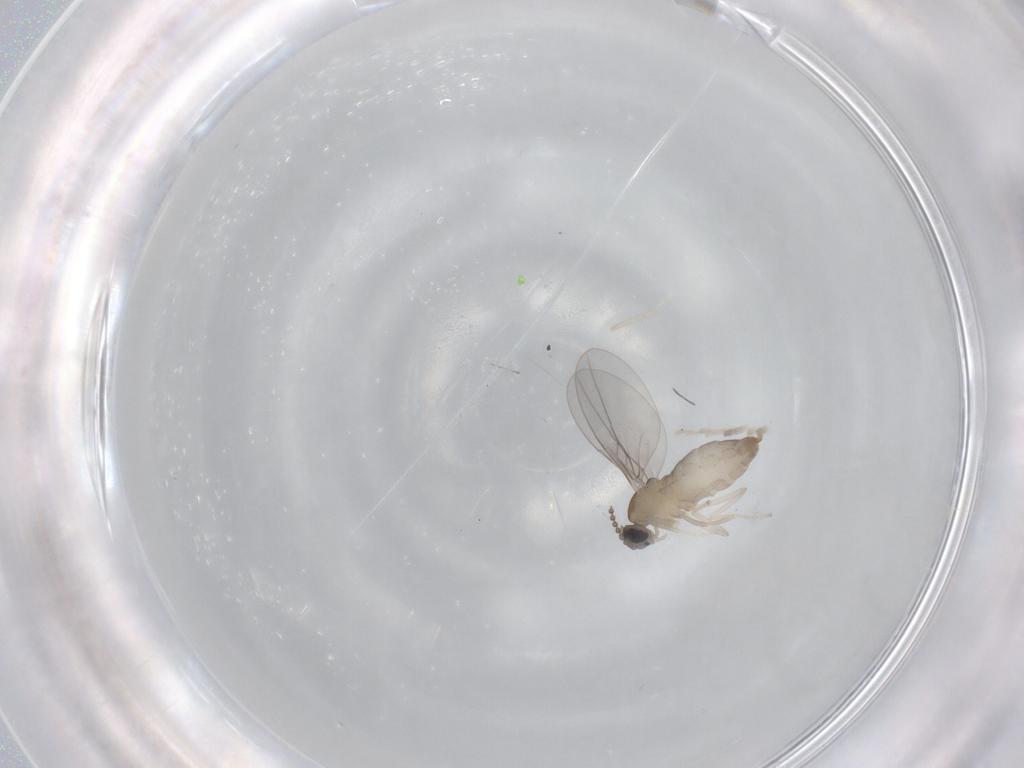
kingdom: Animalia
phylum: Arthropoda
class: Insecta
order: Diptera
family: Cecidomyiidae
